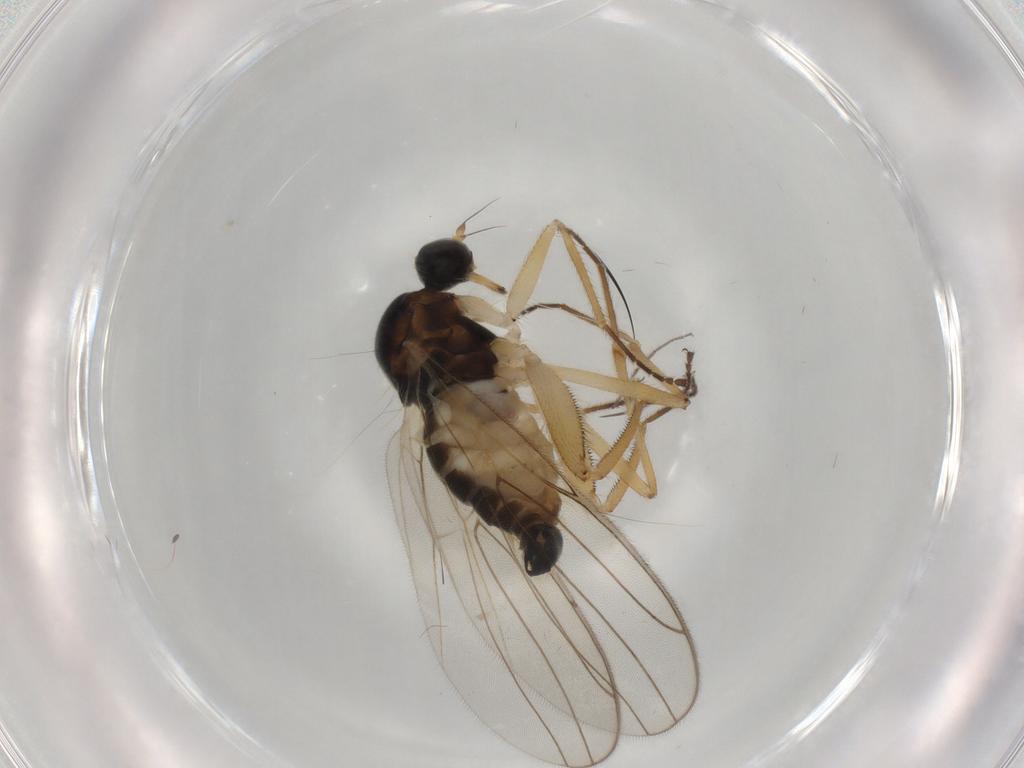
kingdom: Animalia
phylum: Arthropoda
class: Insecta
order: Diptera
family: Hybotidae
